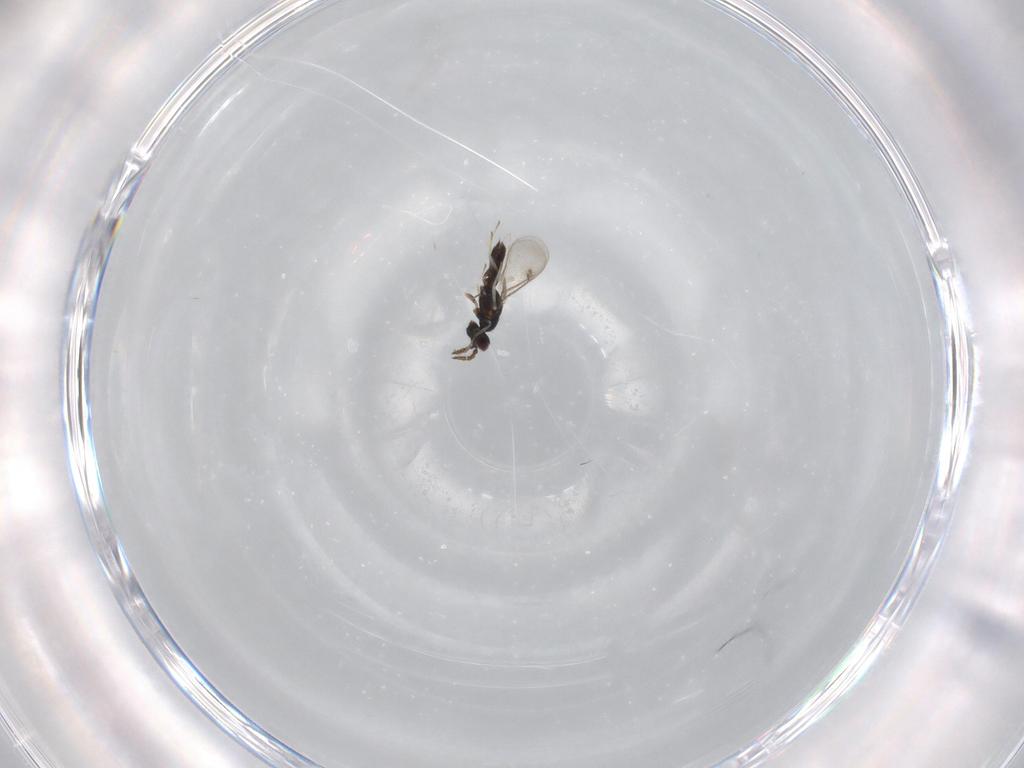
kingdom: Animalia
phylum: Arthropoda
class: Insecta
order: Hymenoptera
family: Eulophidae
